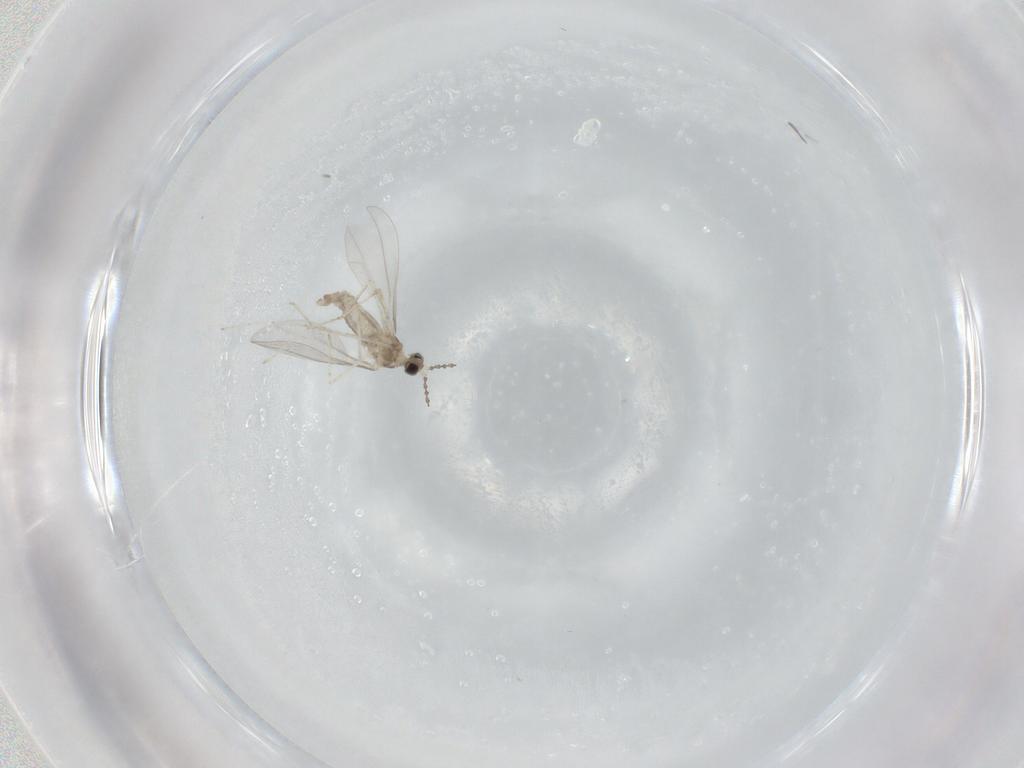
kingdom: Animalia
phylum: Arthropoda
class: Insecta
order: Diptera
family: Cecidomyiidae
